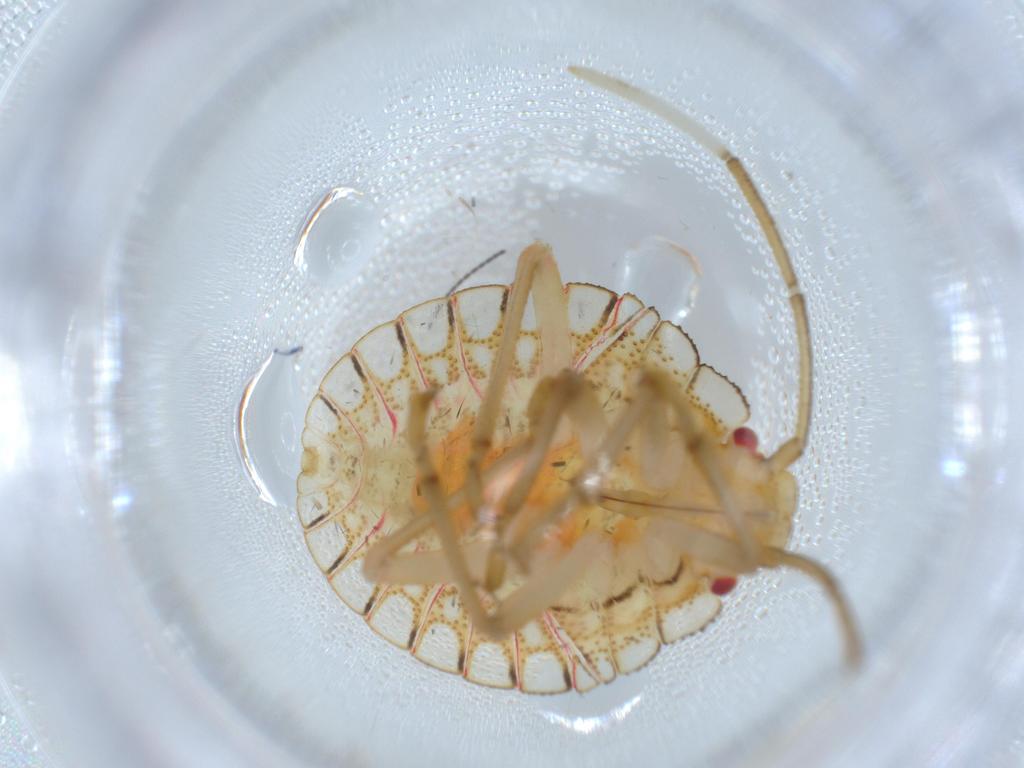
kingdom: Animalia
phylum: Arthropoda
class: Insecta
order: Hemiptera
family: Pentatomidae
